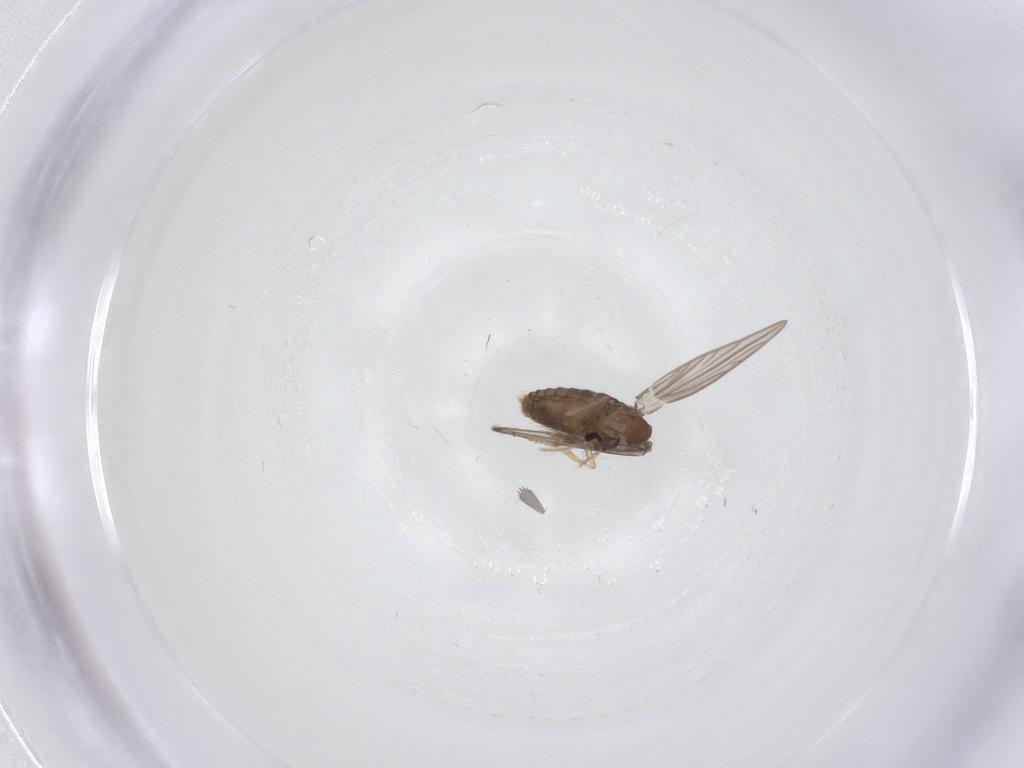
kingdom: Animalia
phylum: Arthropoda
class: Insecta
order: Diptera
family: Psychodidae
